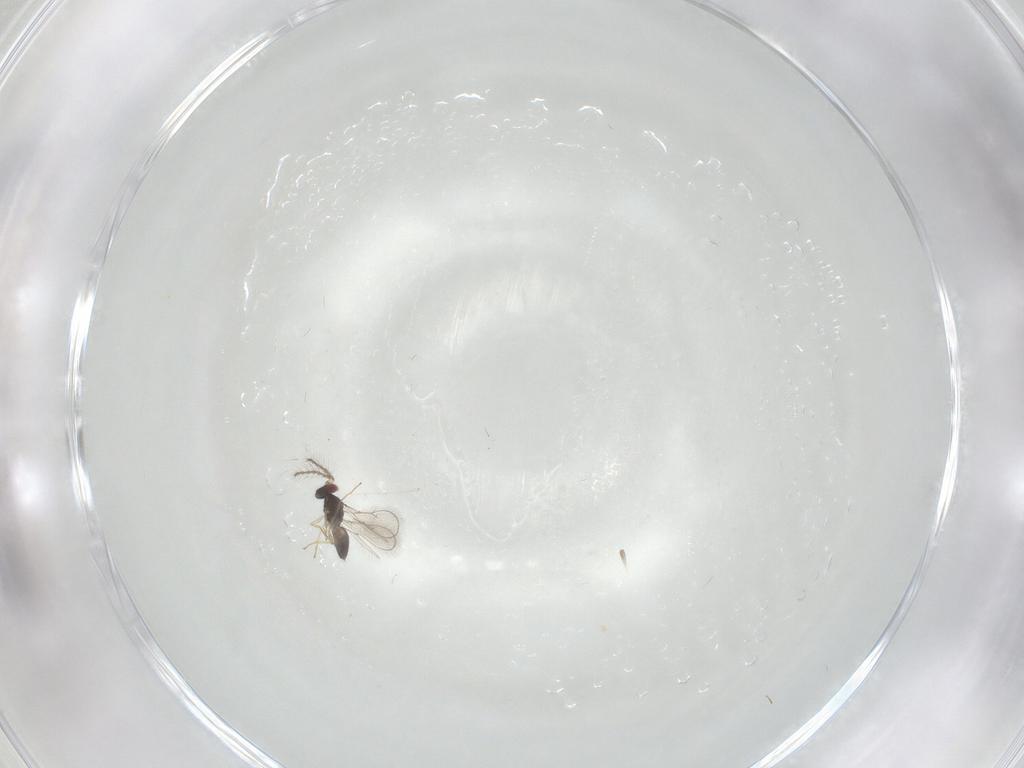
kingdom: Animalia
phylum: Arthropoda
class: Insecta
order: Hymenoptera
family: Eulophidae
